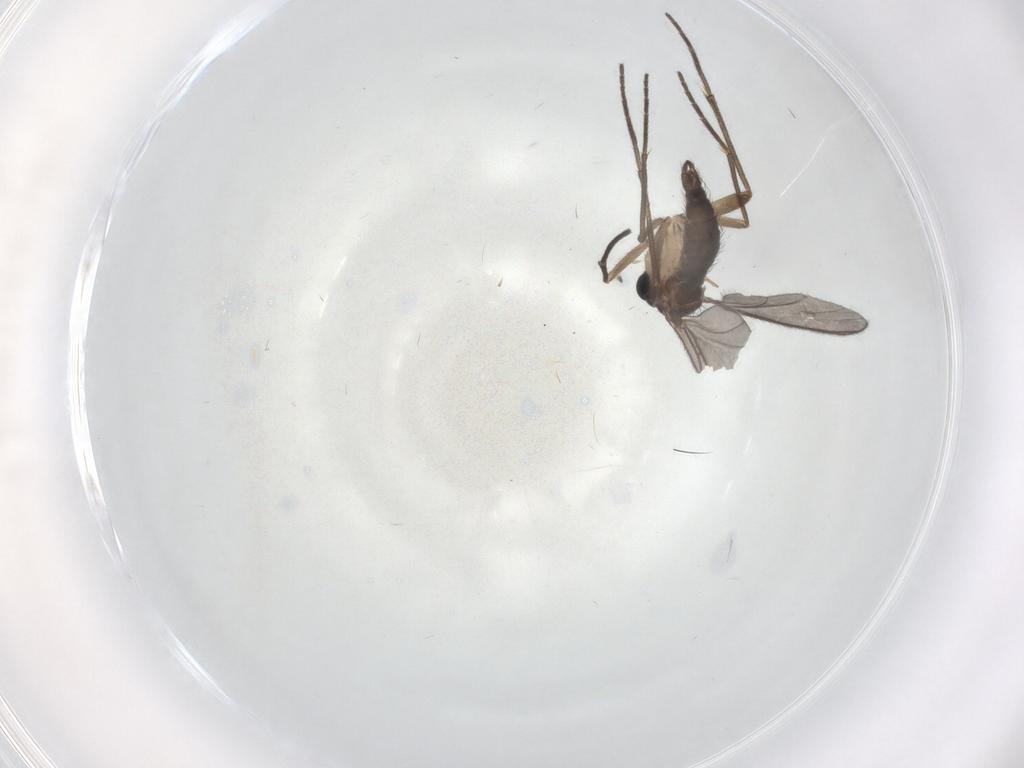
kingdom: Animalia
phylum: Arthropoda
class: Insecta
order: Diptera
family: Sciaridae
